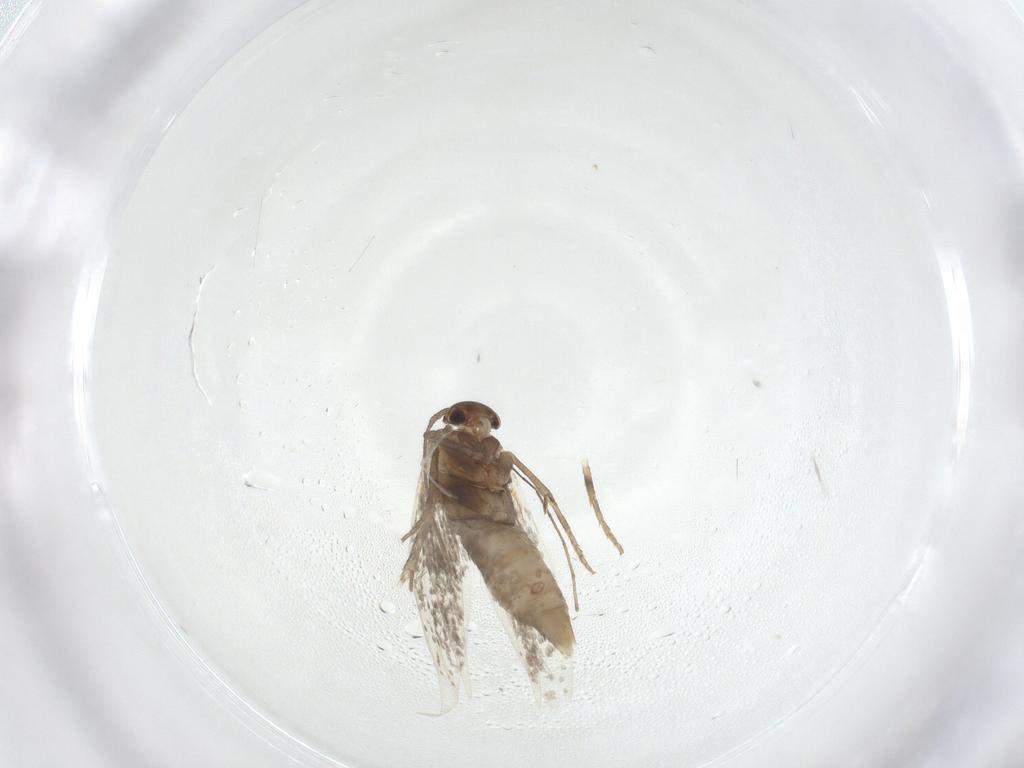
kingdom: Animalia
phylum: Arthropoda
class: Insecta
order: Lepidoptera
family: Elachistidae
